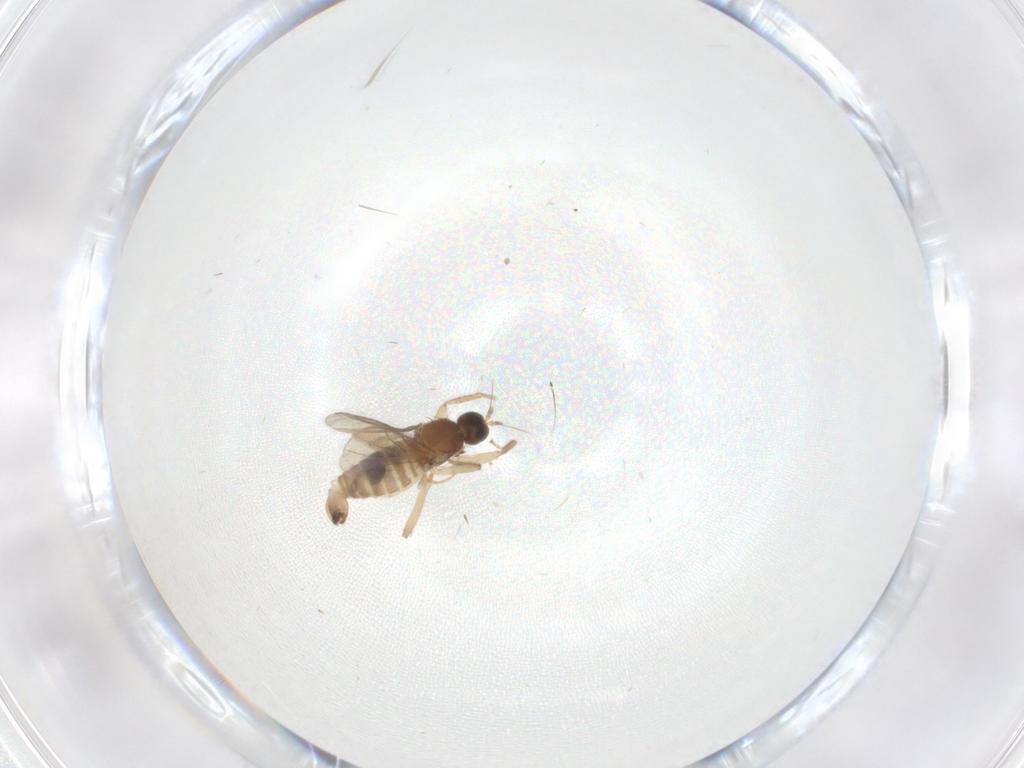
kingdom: Animalia
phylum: Arthropoda
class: Insecta
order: Diptera
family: Hybotidae
